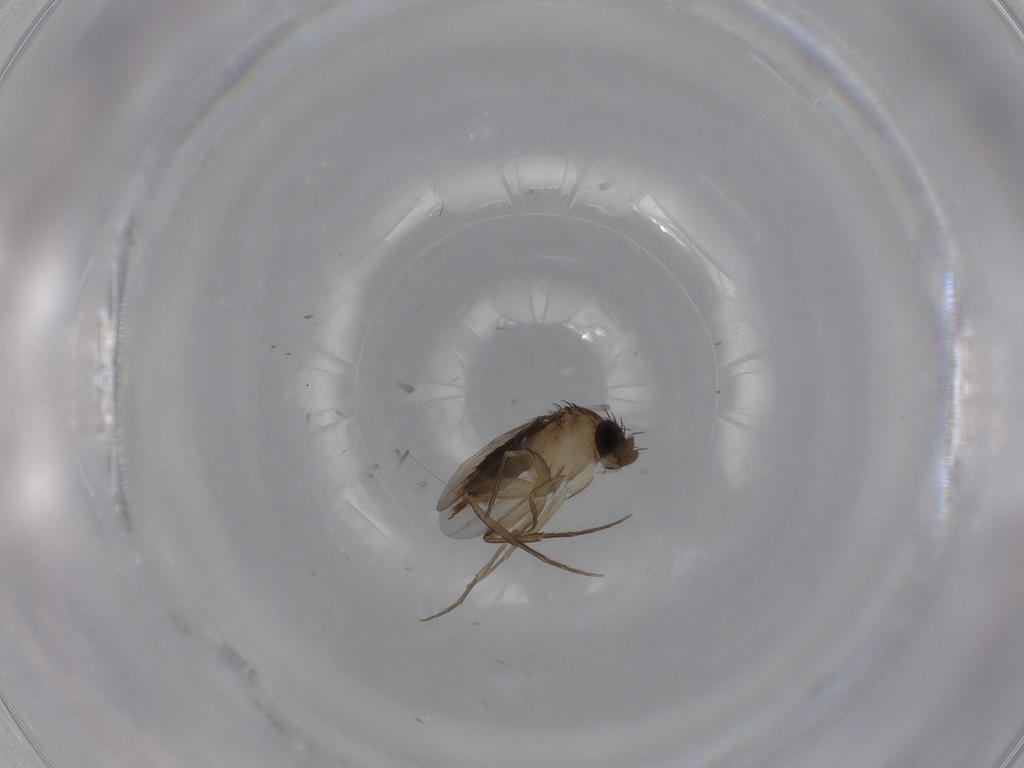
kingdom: Animalia
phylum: Arthropoda
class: Insecta
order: Diptera
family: Phoridae
